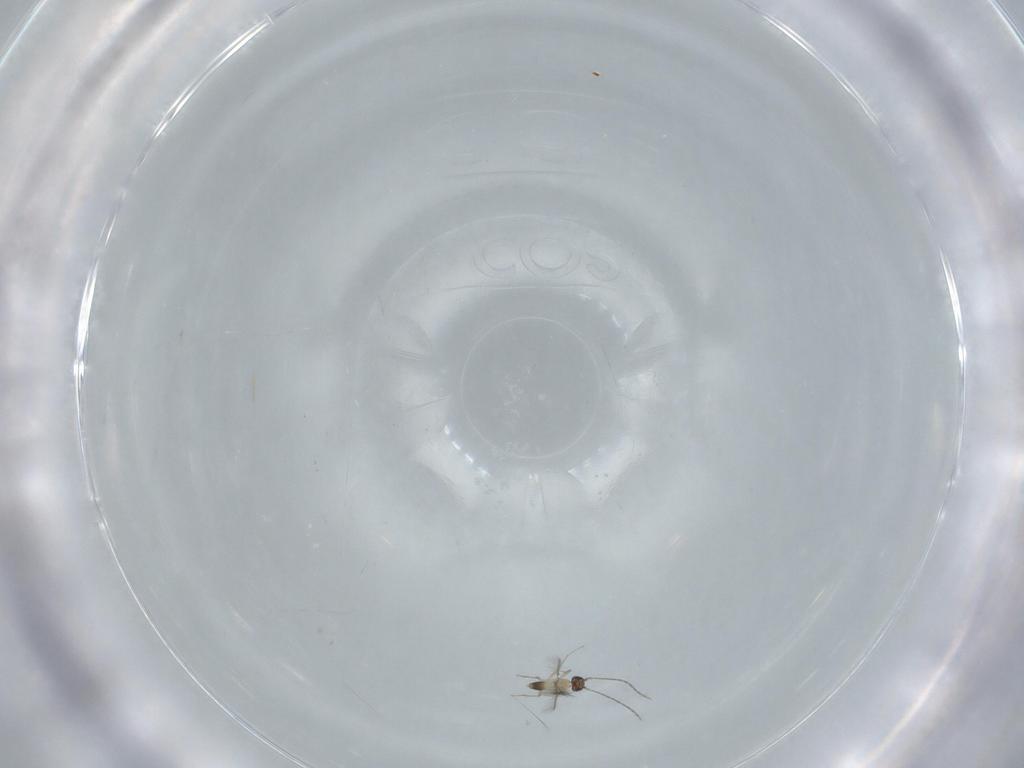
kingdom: Animalia
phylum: Arthropoda
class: Insecta
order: Hymenoptera
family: Mymaridae
